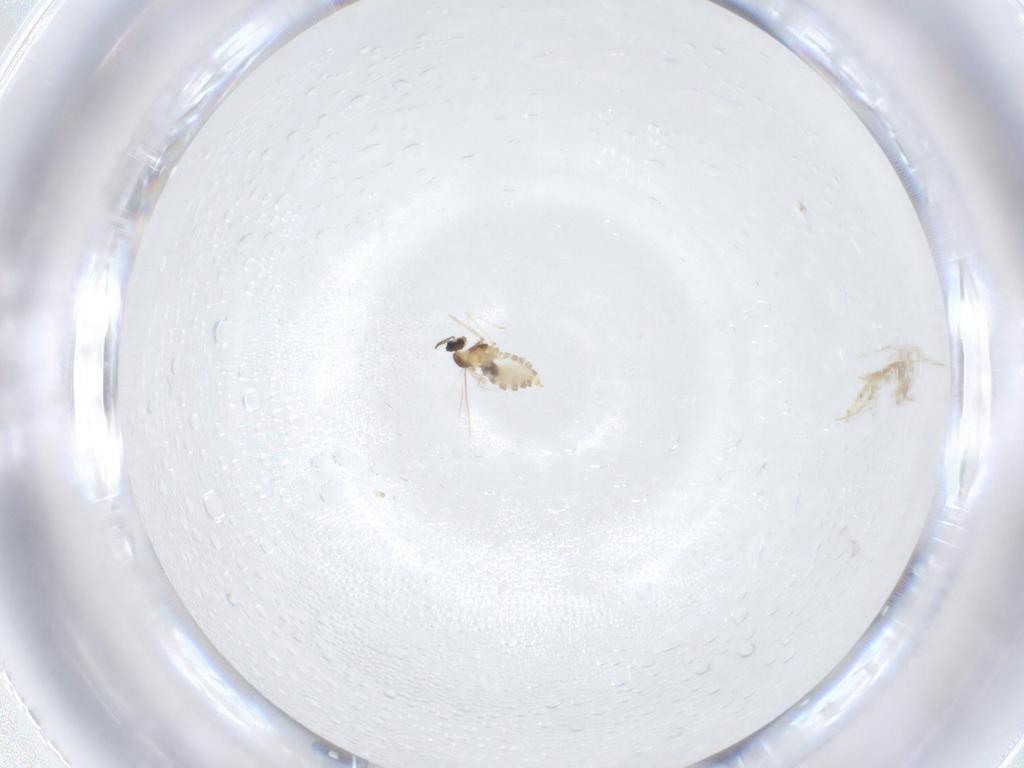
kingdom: Animalia
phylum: Arthropoda
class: Insecta
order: Diptera
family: Cecidomyiidae
